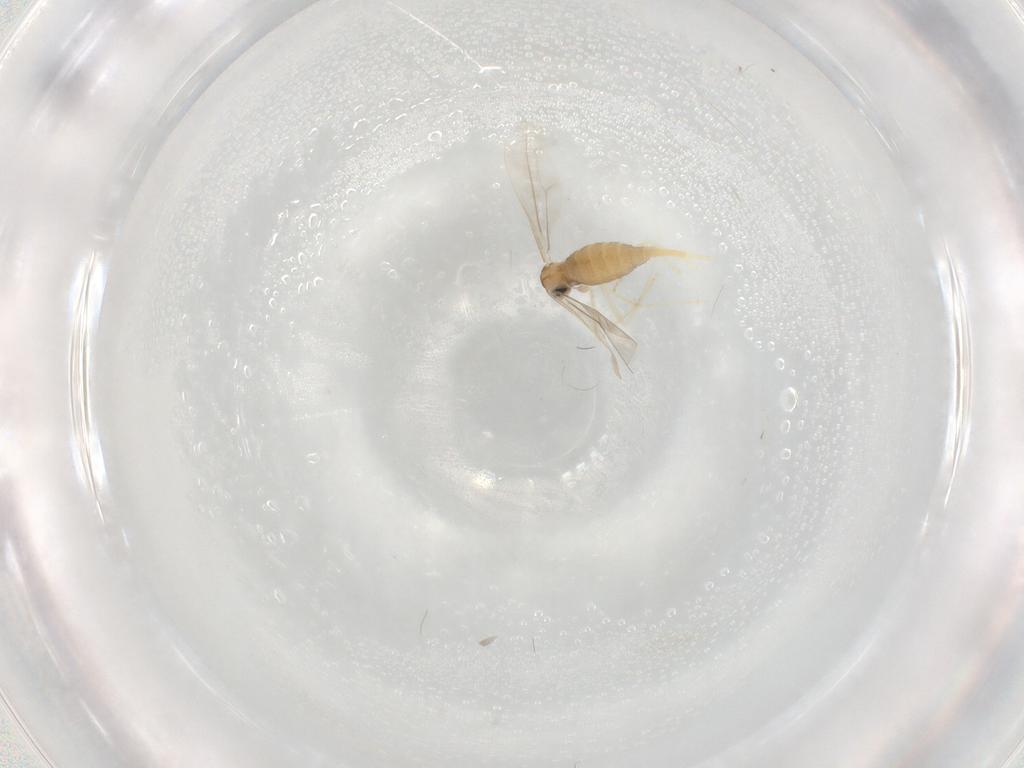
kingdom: Animalia
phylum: Arthropoda
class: Insecta
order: Diptera
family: Cecidomyiidae
